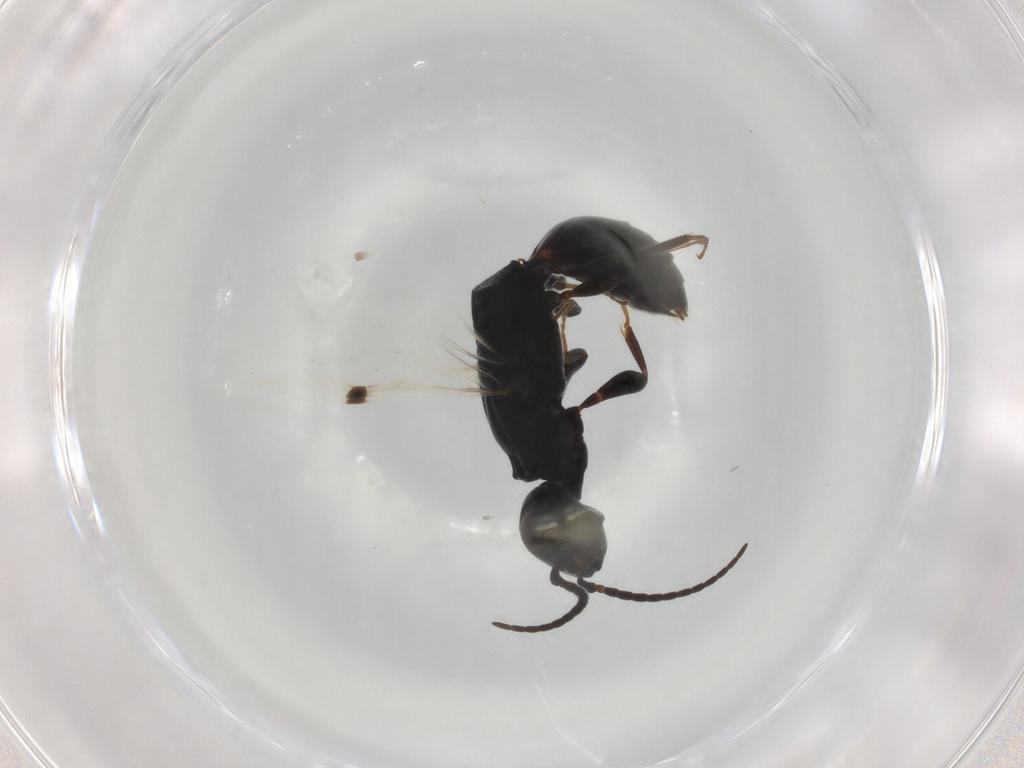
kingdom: Animalia
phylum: Arthropoda
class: Insecta
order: Hymenoptera
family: Bethylidae
